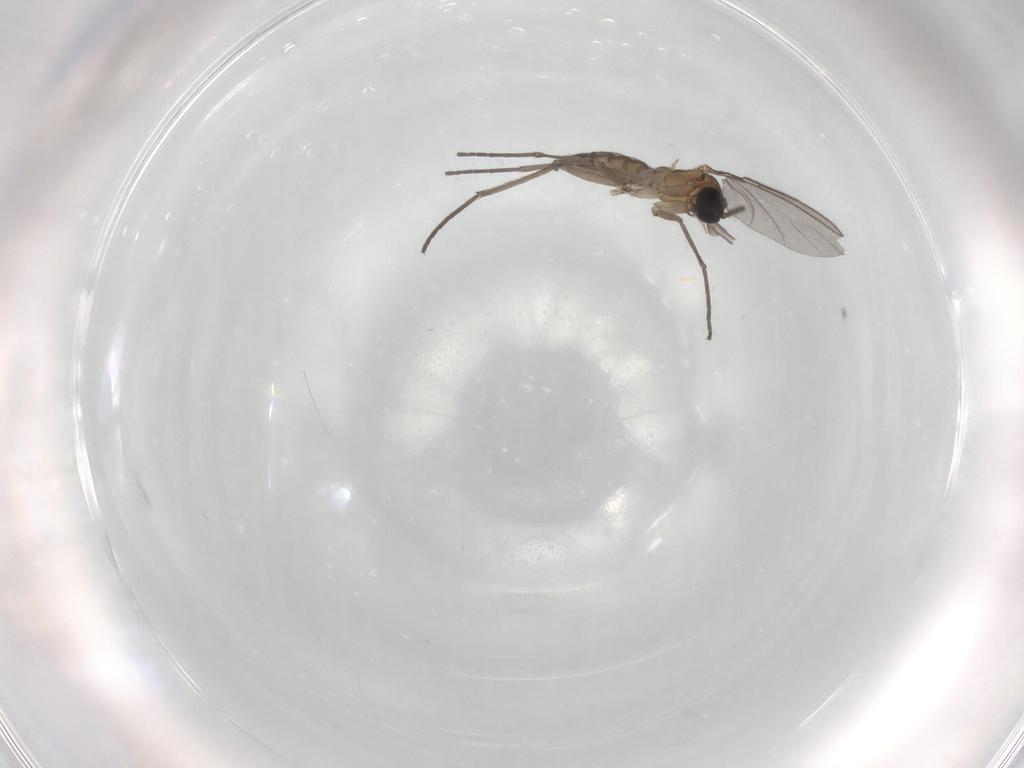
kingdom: Animalia
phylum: Arthropoda
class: Insecta
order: Diptera
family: Sciaridae
